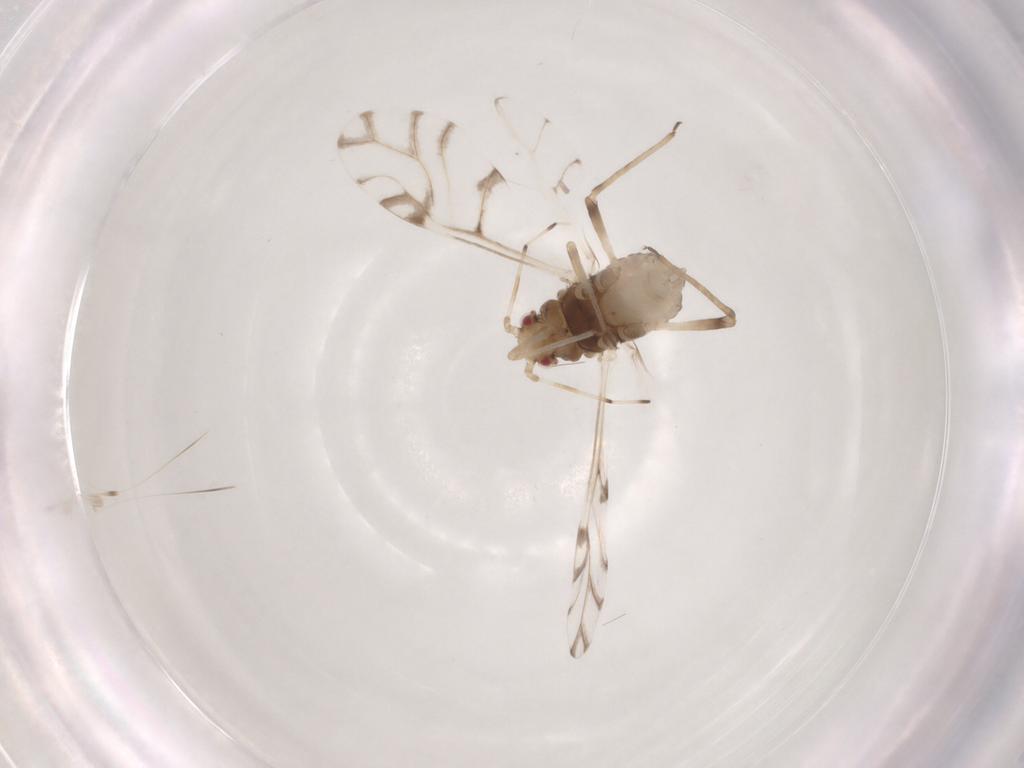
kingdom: Animalia
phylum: Arthropoda
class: Insecta
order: Hemiptera
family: Aphididae
